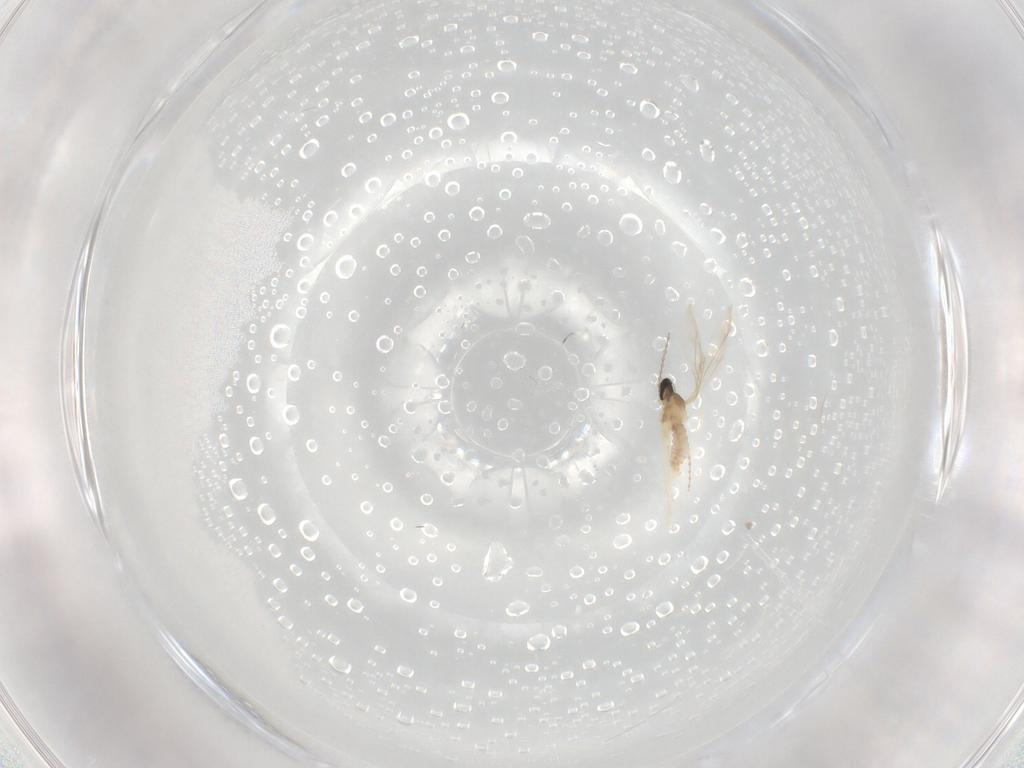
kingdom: Animalia
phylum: Arthropoda
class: Insecta
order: Diptera
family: Cecidomyiidae
